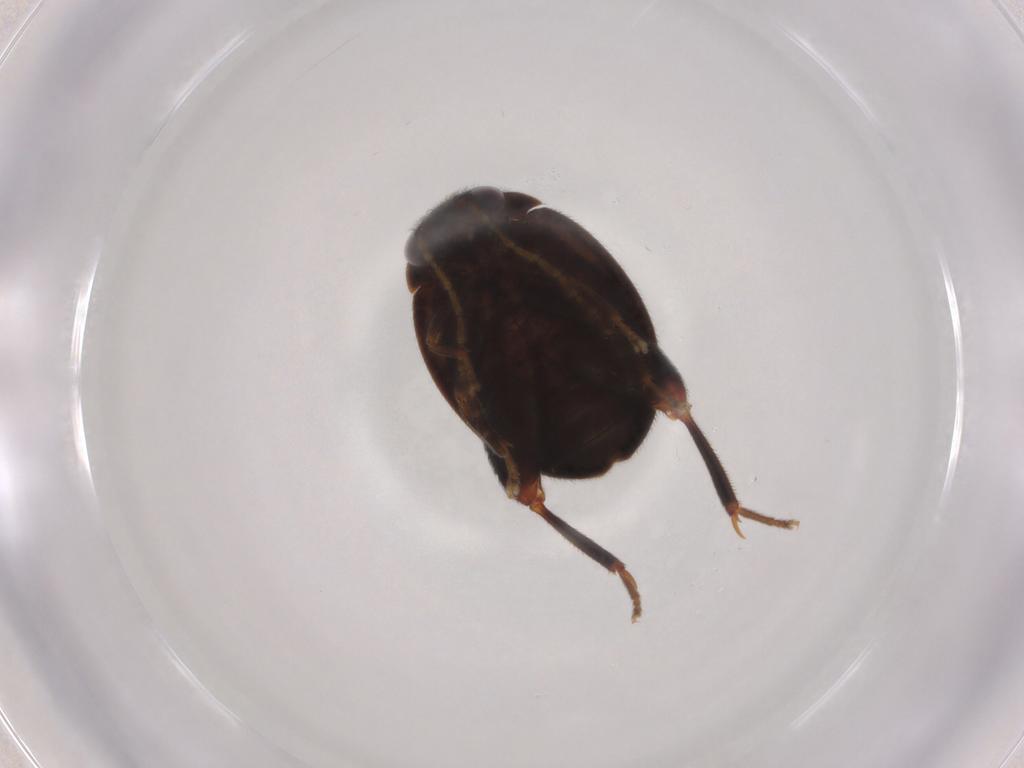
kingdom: Animalia
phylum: Arthropoda
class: Insecta
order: Coleoptera
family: Scirtidae
